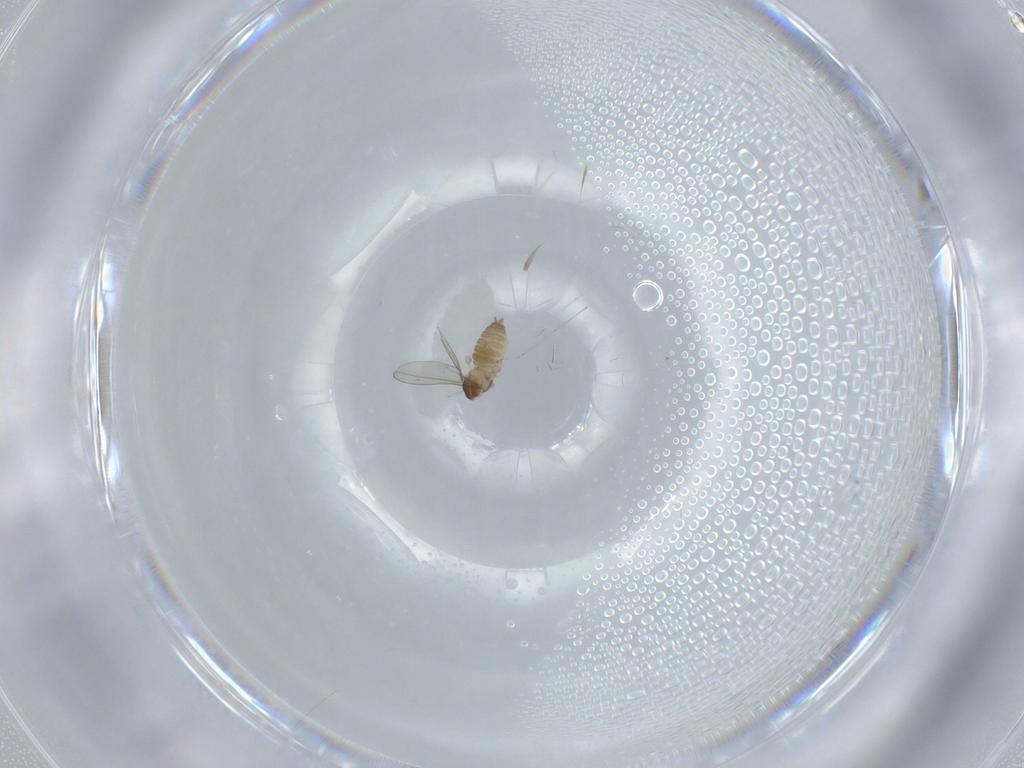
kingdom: Animalia
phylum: Arthropoda
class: Insecta
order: Diptera
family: Cecidomyiidae
